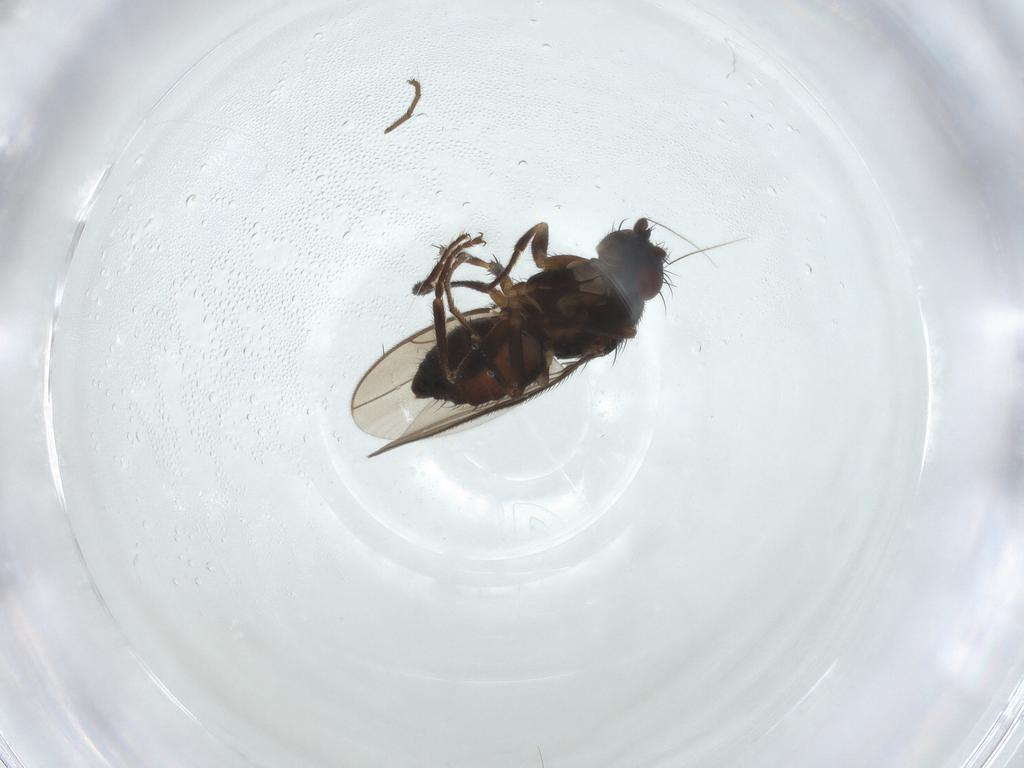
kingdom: Animalia
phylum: Arthropoda
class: Insecta
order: Diptera
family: Sphaeroceridae
